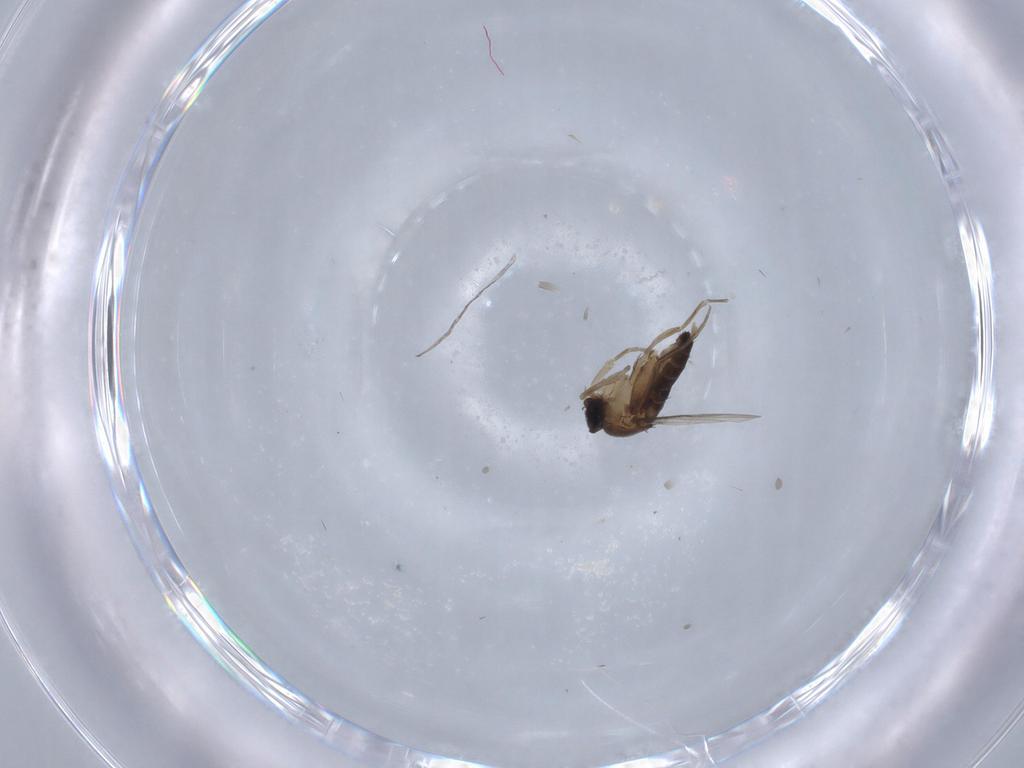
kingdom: Animalia
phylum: Arthropoda
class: Insecta
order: Diptera
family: Phoridae
